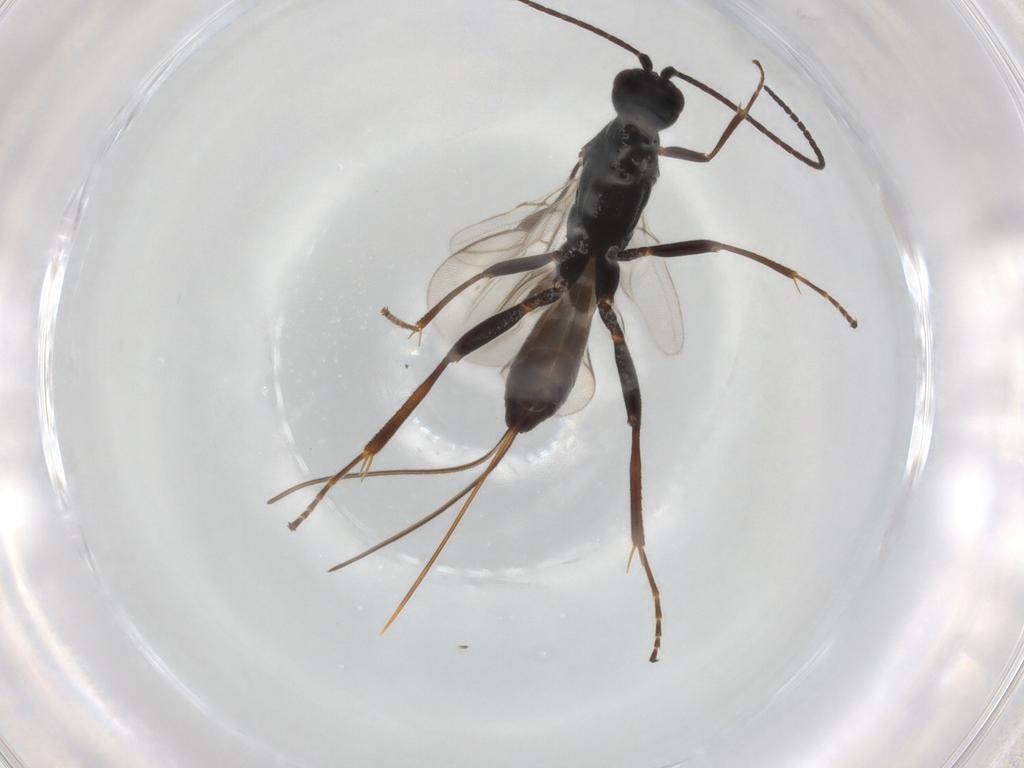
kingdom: Animalia
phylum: Arthropoda
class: Insecta
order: Hymenoptera
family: Braconidae
